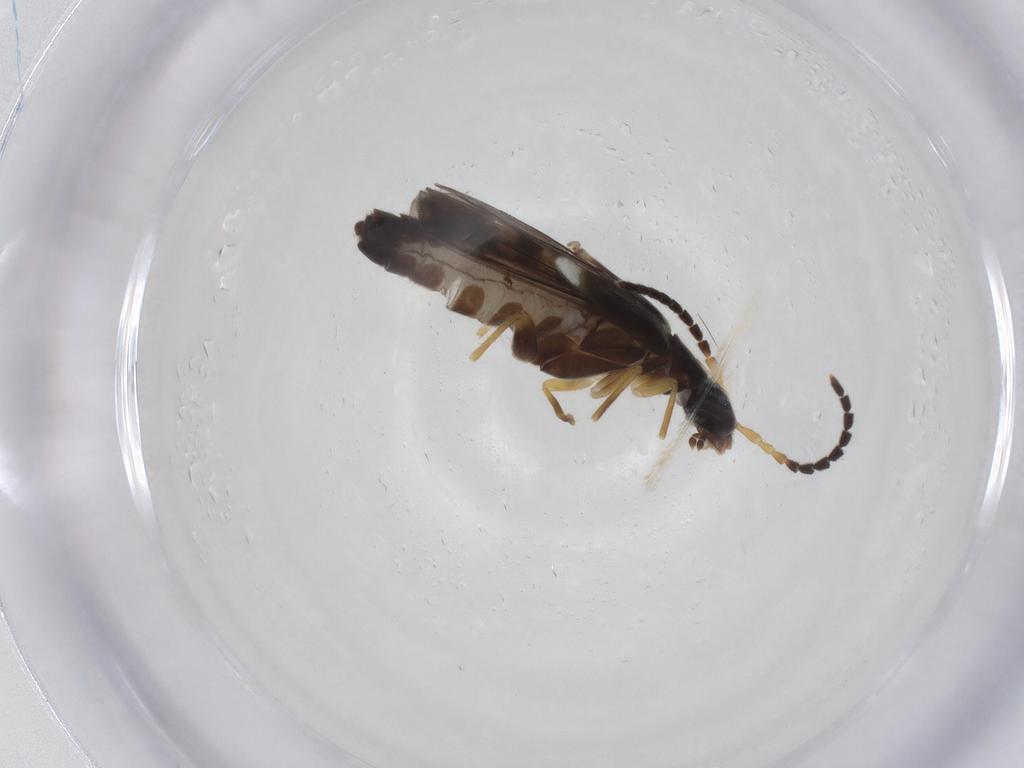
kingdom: Animalia
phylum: Arthropoda
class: Insecta
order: Coleoptera
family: Cantharidae
